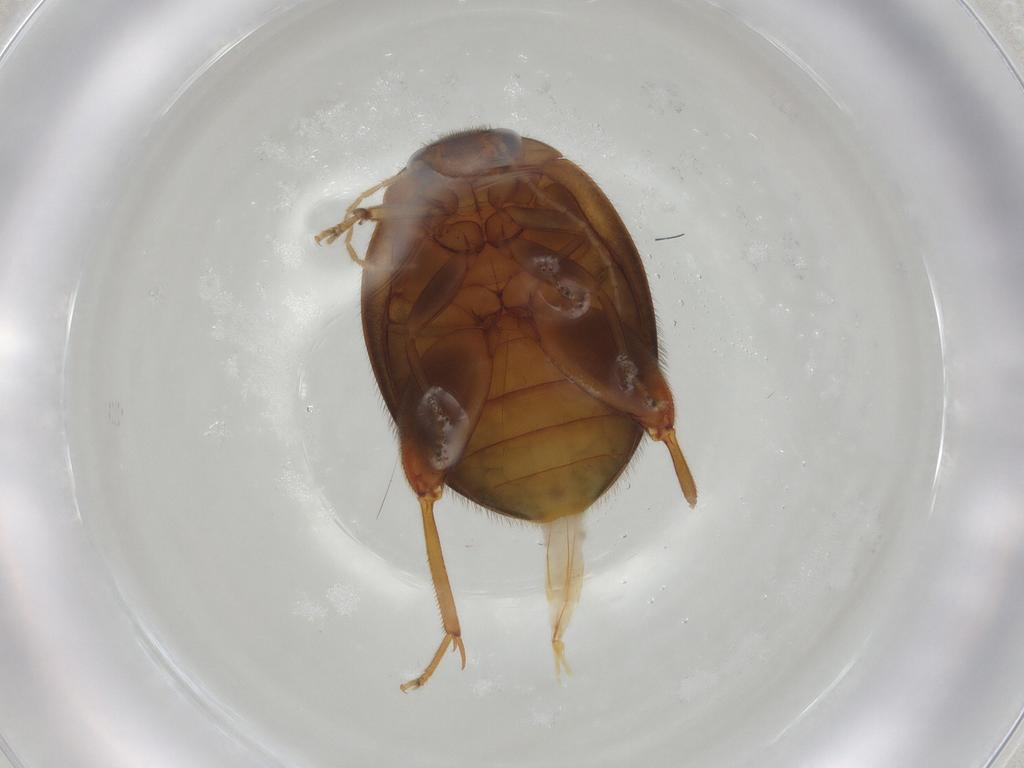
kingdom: Animalia
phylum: Arthropoda
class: Insecta
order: Coleoptera
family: Scirtidae
